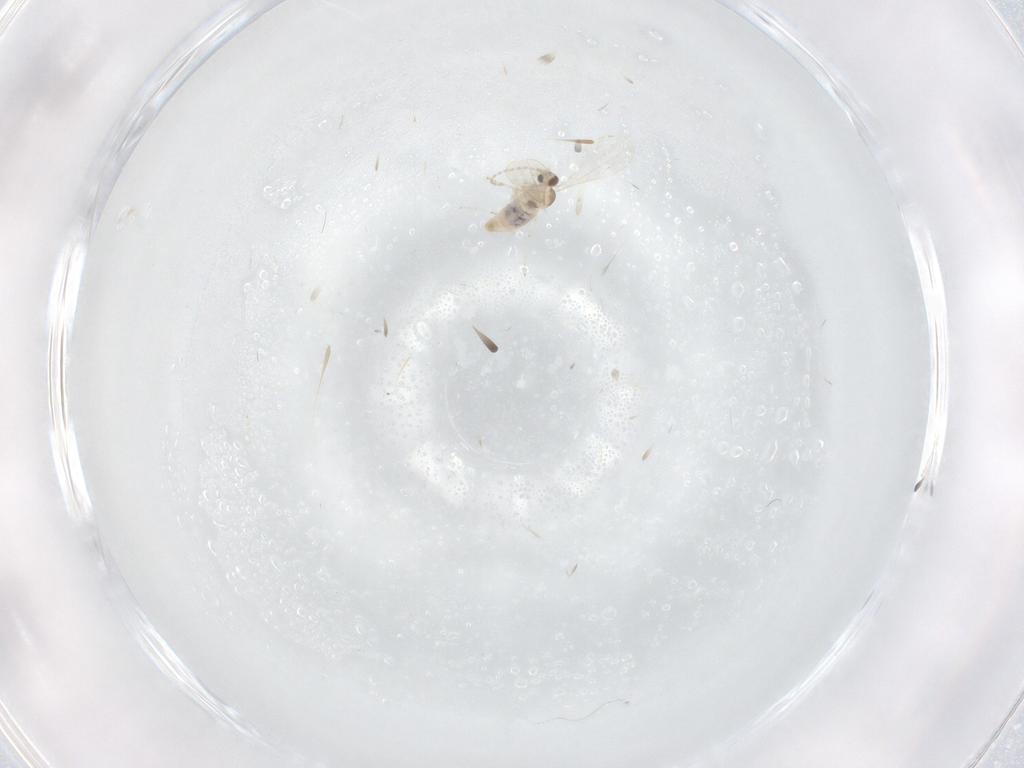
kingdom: Animalia
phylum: Arthropoda
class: Insecta
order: Diptera
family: Cecidomyiidae
